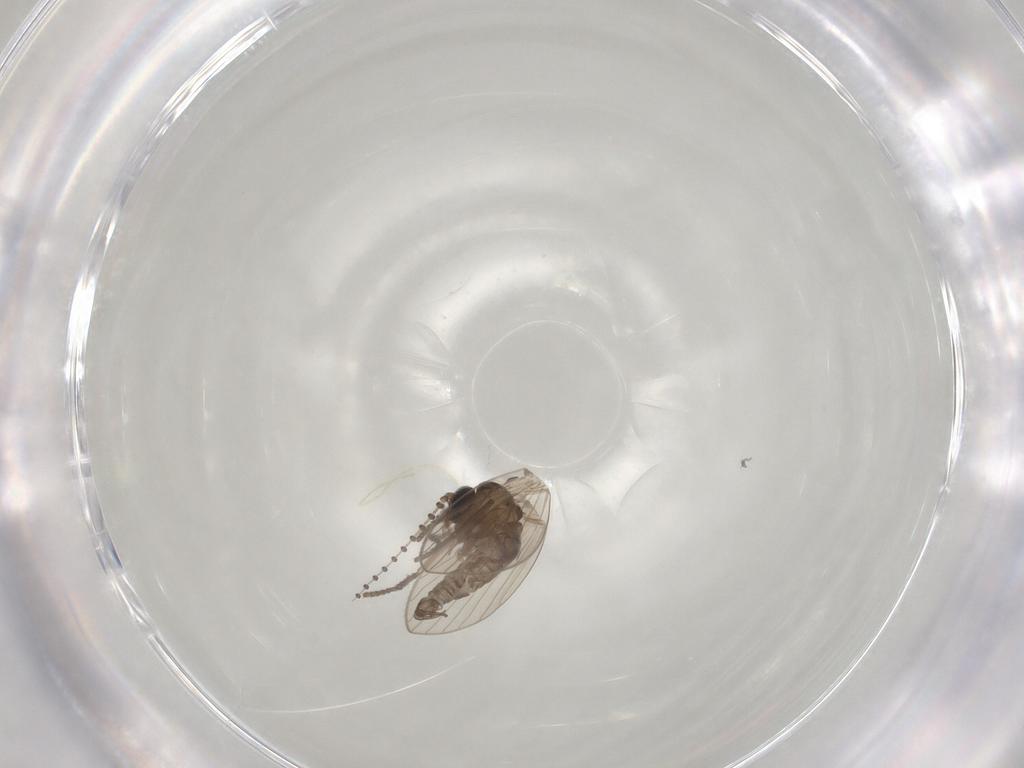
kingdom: Animalia
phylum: Arthropoda
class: Insecta
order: Diptera
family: Cecidomyiidae
